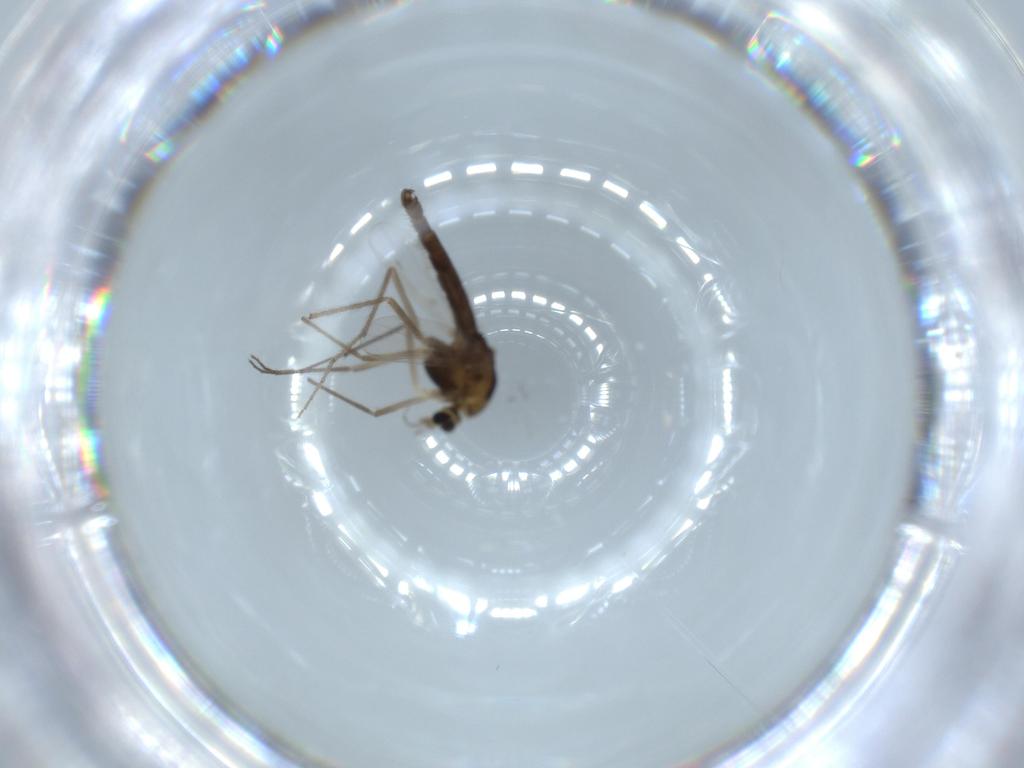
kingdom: Animalia
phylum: Arthropoda
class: Insecta
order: Diptera
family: Chironomidae
